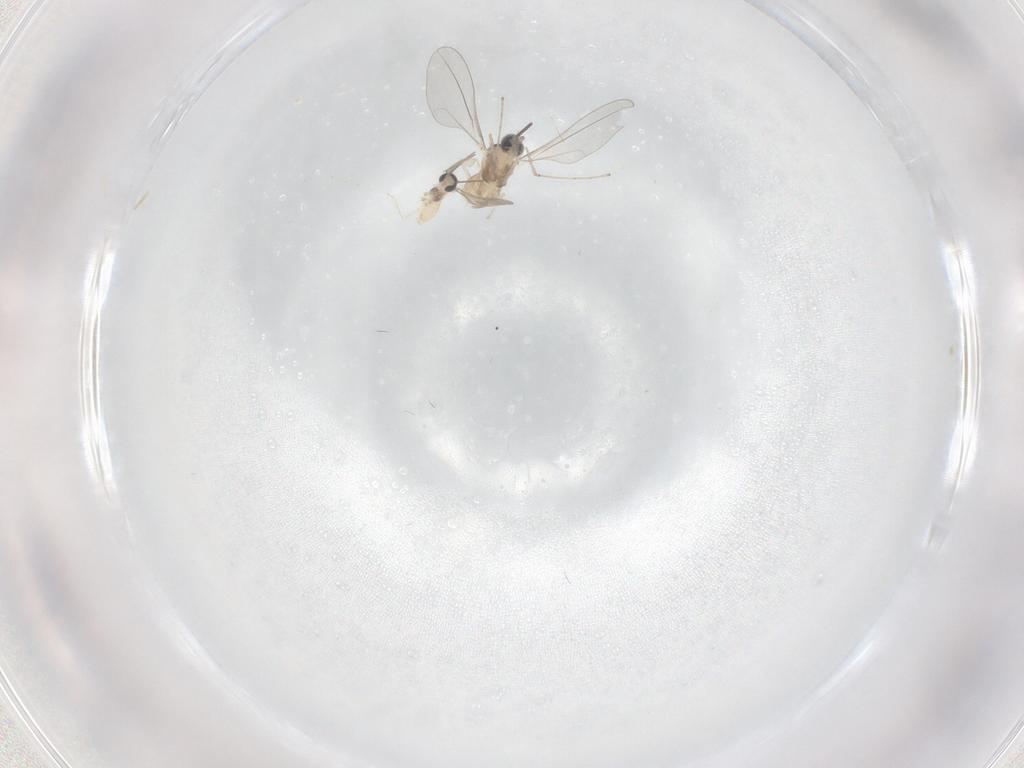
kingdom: Animalia
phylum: Arthropoda
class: Insecta
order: Diptera
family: Cecidomyiidae
